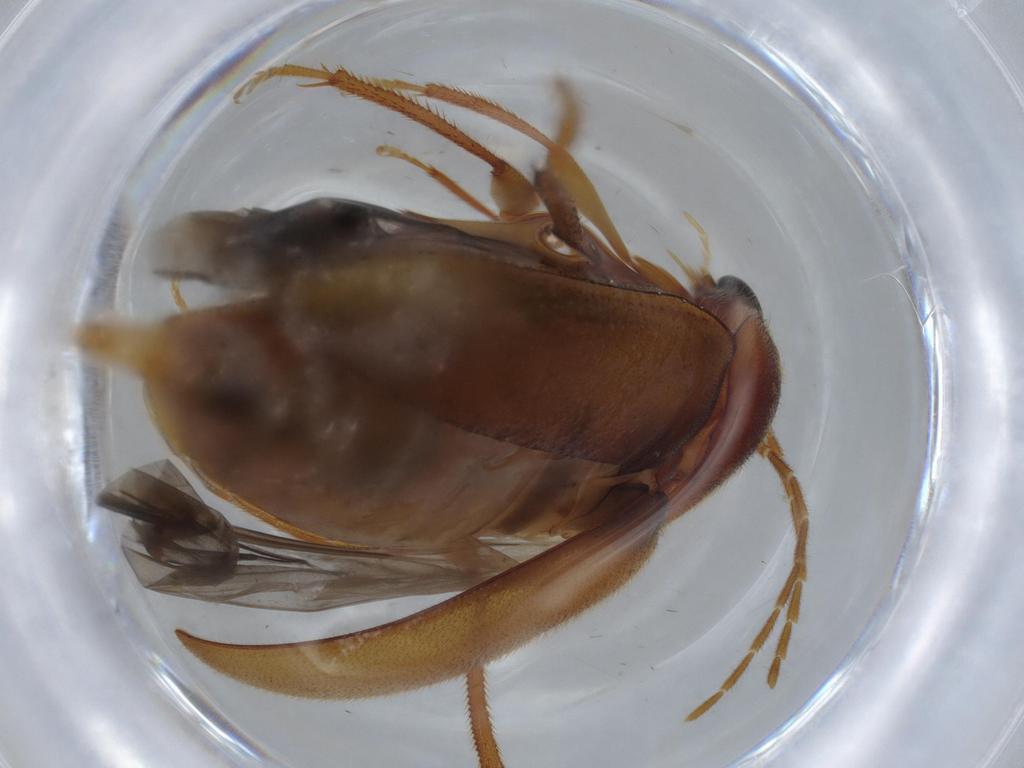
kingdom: Animalia
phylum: Arthropoda
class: Insecta
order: Coleoptera
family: Ptilodactylidae
